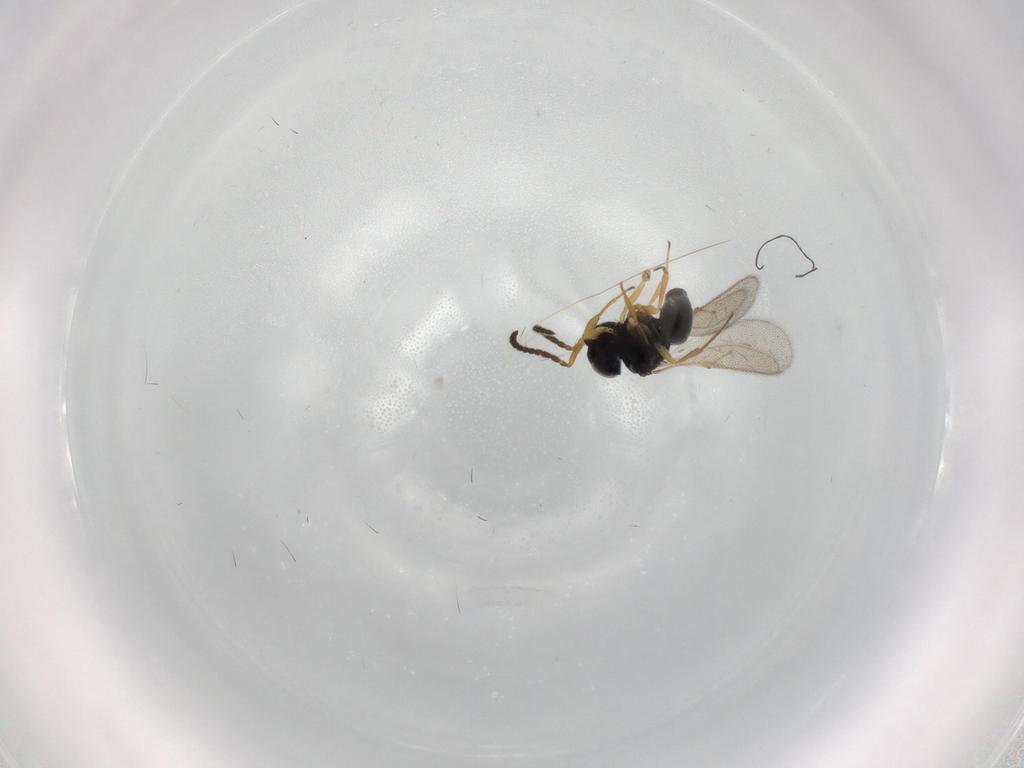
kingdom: Animalia
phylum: Arthropoda
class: Insecta
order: Hymenoptera
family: Scelionidae
